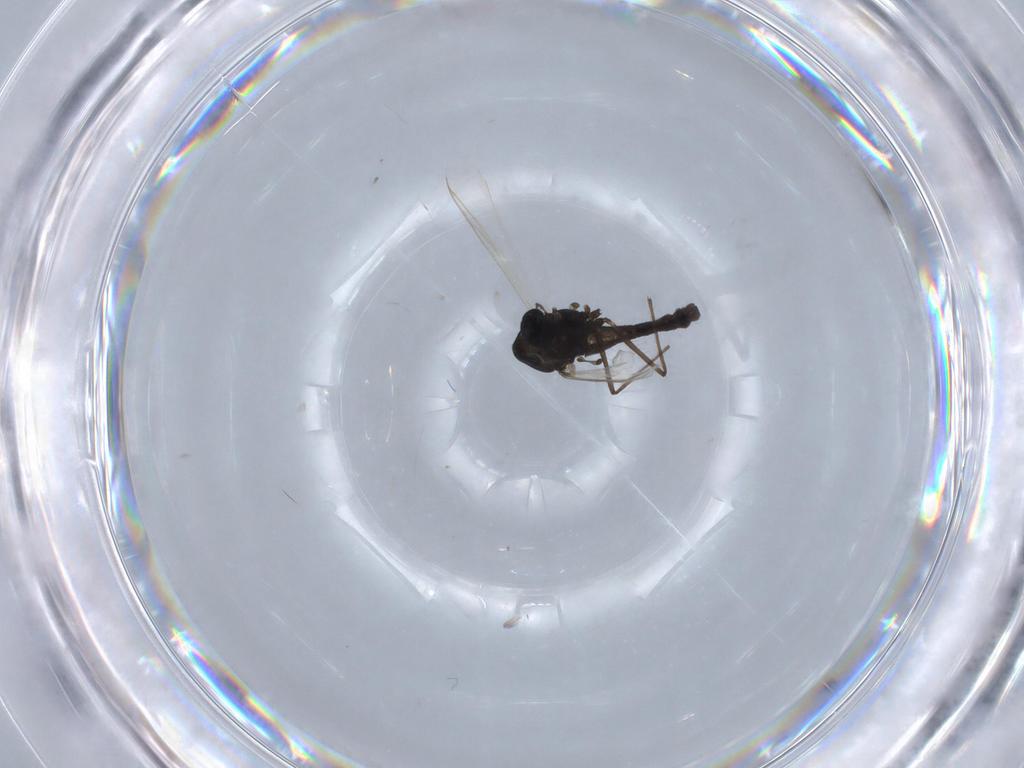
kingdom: Animalia
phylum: Arthropoda
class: Insecta
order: Diptera
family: Chironomidae
